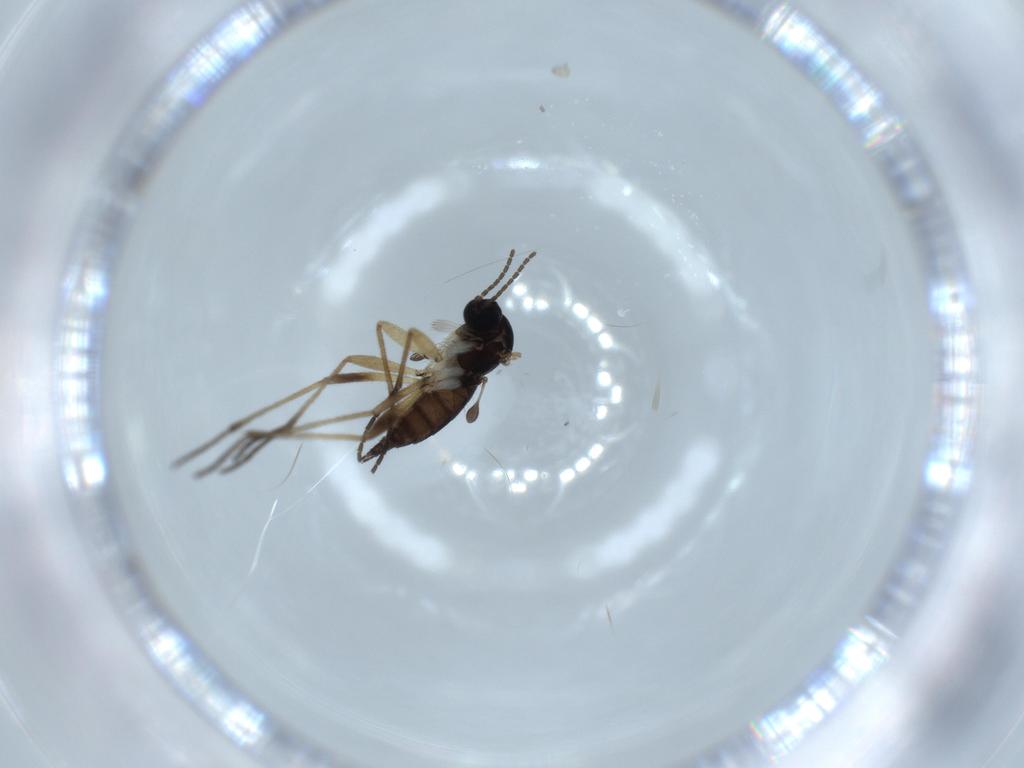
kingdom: Animalia
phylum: Arthropoda
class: Insecta
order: Diptera
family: Sciaridae
